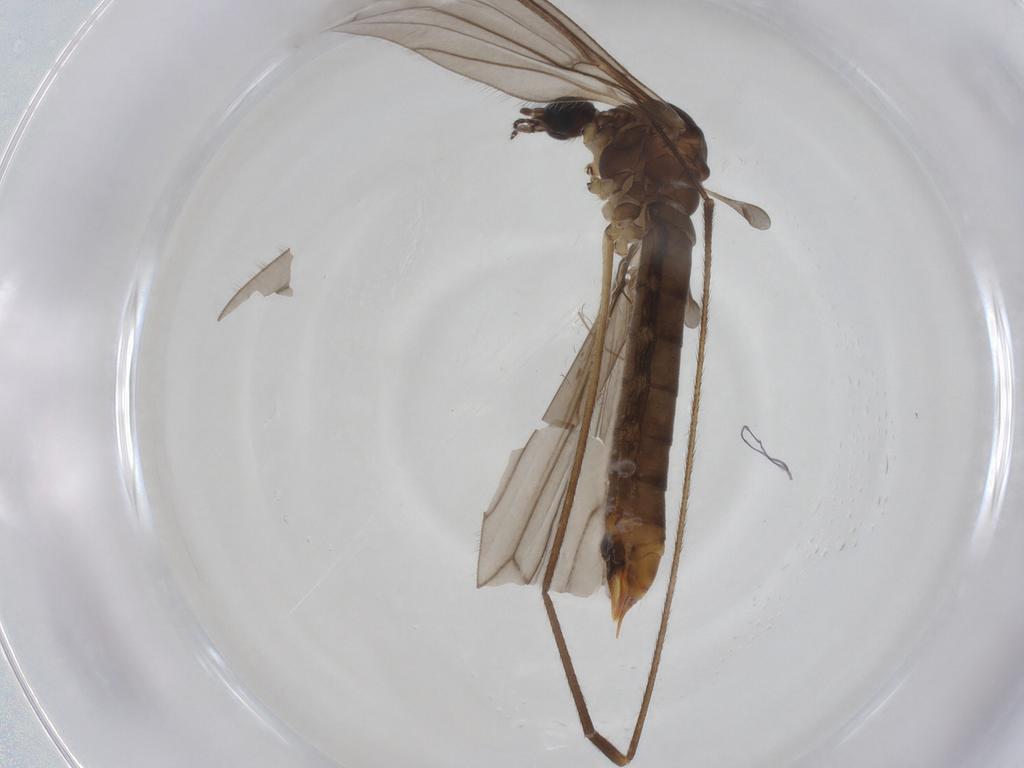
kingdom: Animalia
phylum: Arthropoda
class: Insecta
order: Diptera
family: Limoniidae
